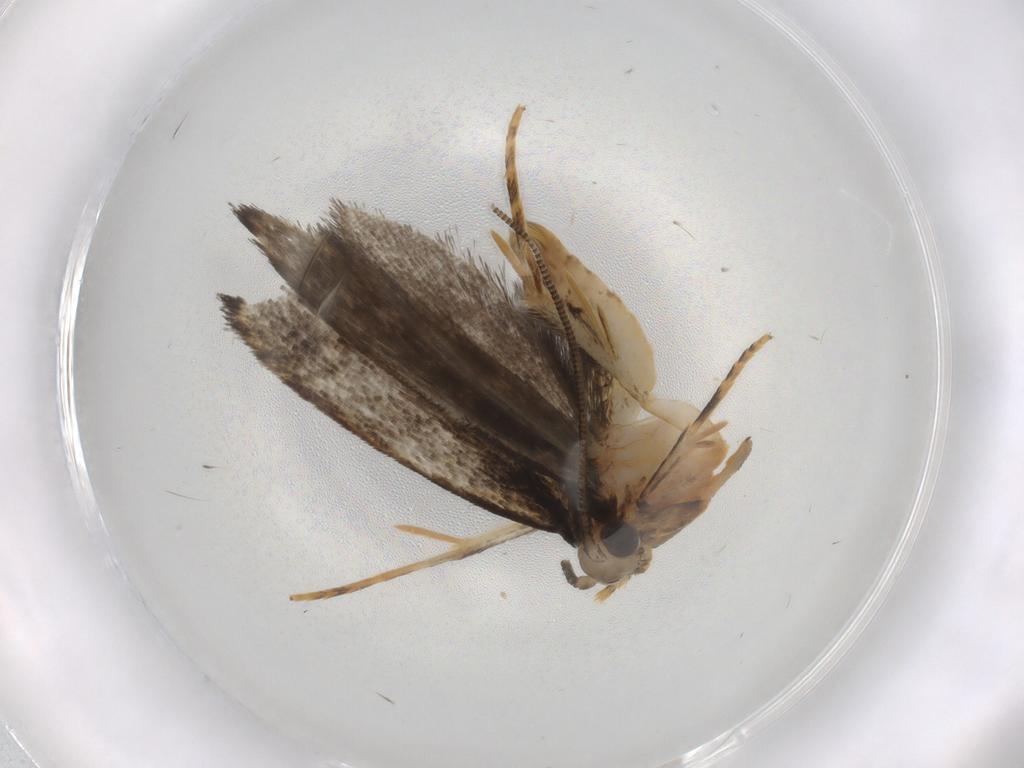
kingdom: Animalia
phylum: Arthropoda
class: Insecta
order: Lepidoptera
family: Tineidae
